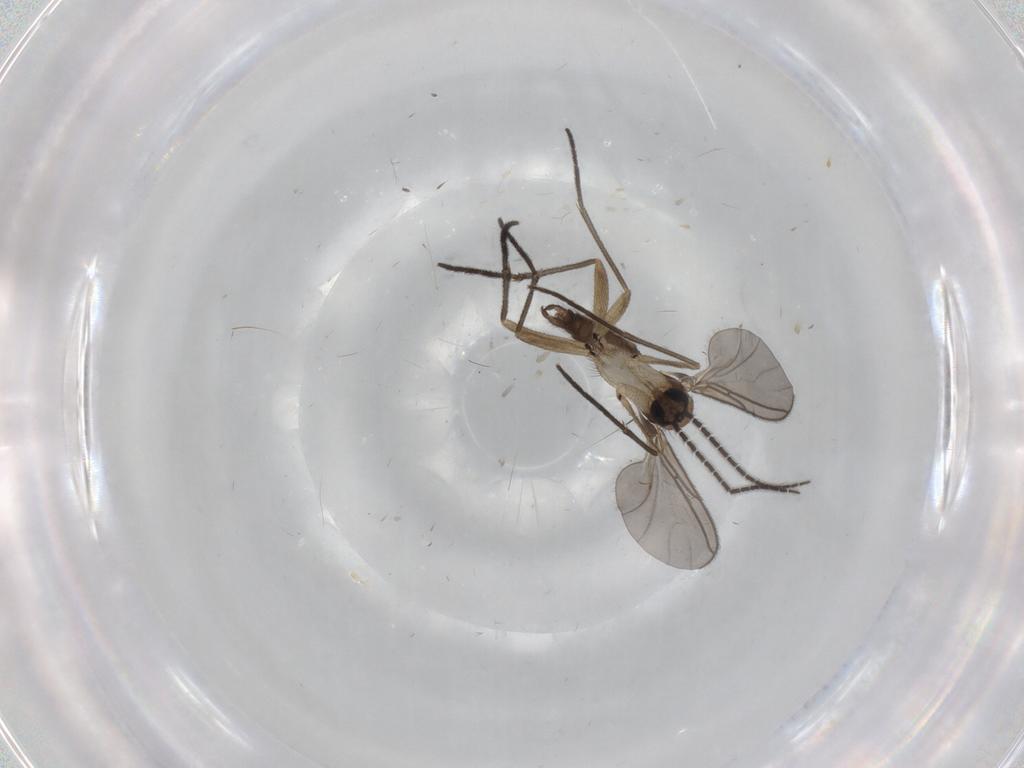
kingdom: Animalia
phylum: Arthropoda
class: Insecta
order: Diptera
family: Sciaridae
